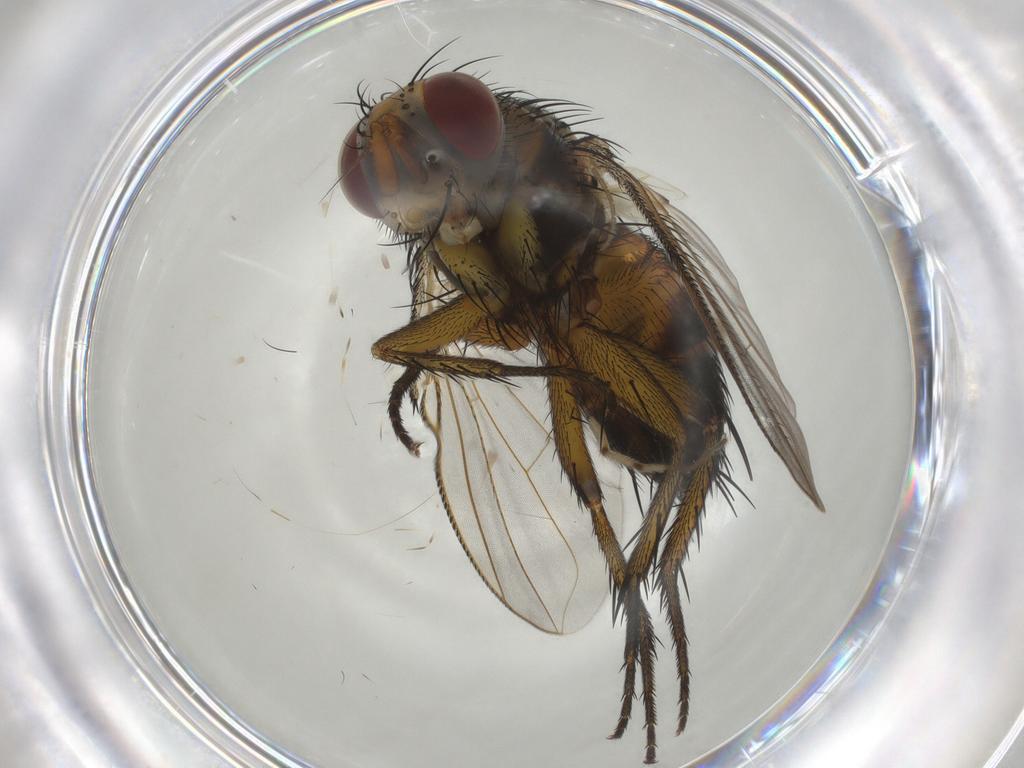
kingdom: Animalia
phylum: Arthropoda
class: Insecta
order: Diptera
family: Tachinidae
